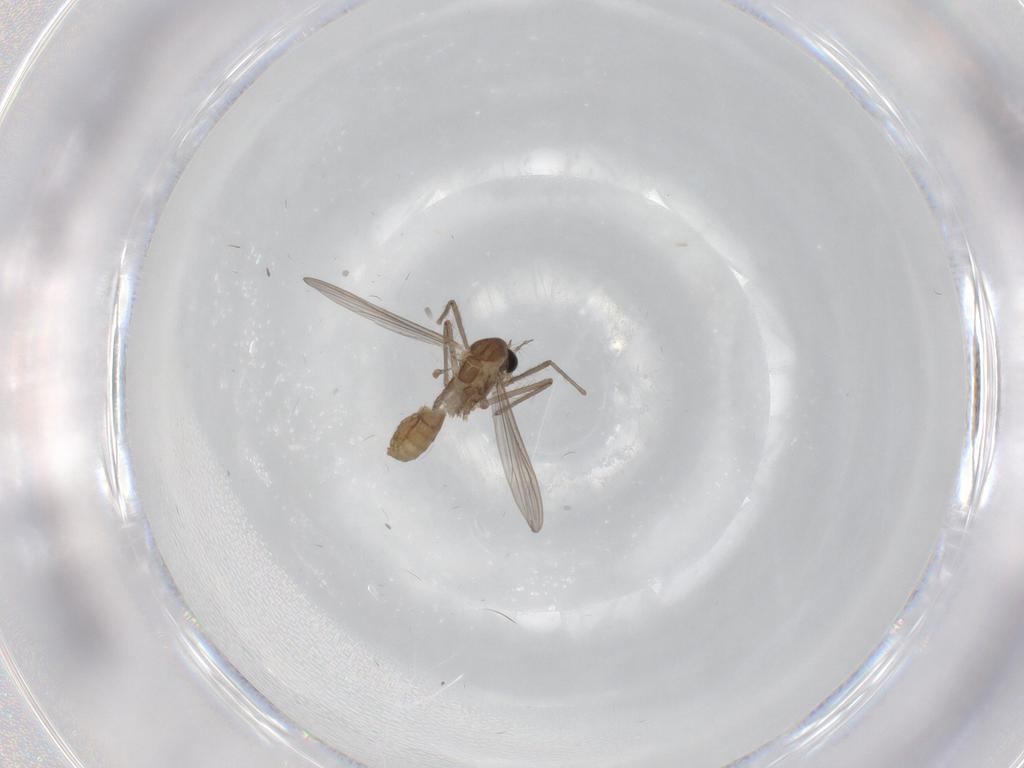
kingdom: Animalia
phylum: Arthropoda
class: Insecta
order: Diptera
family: Chironomidae
